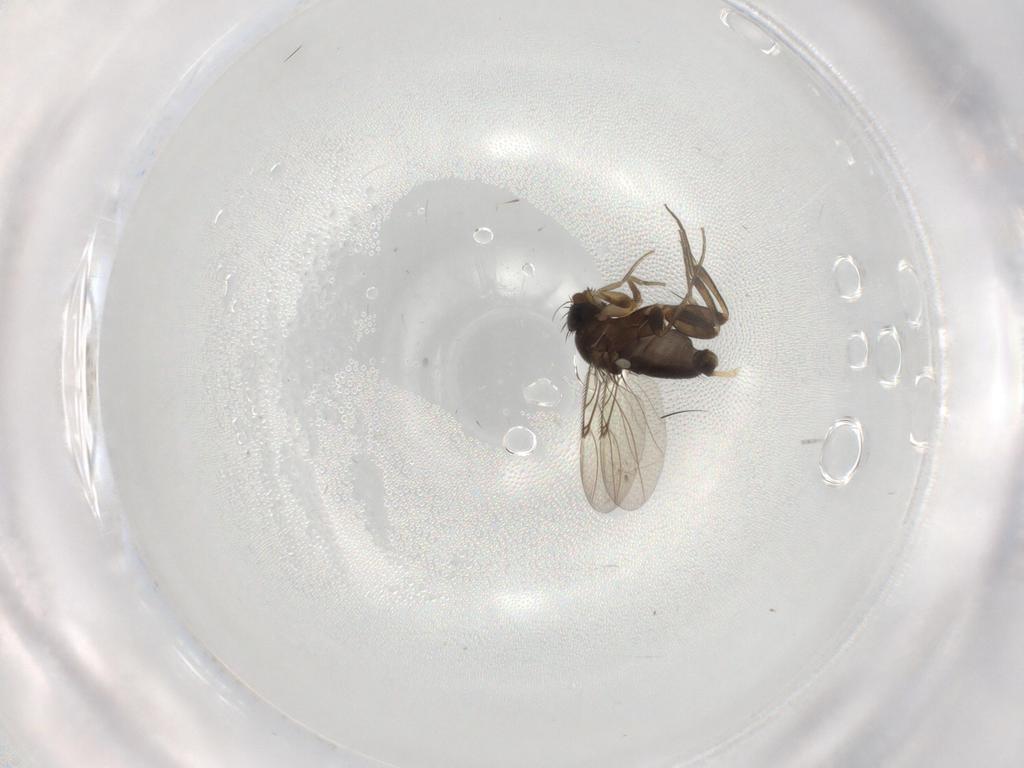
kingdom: Animalia
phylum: Arthropoda
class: Insecta
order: Diptera
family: Phoridae
